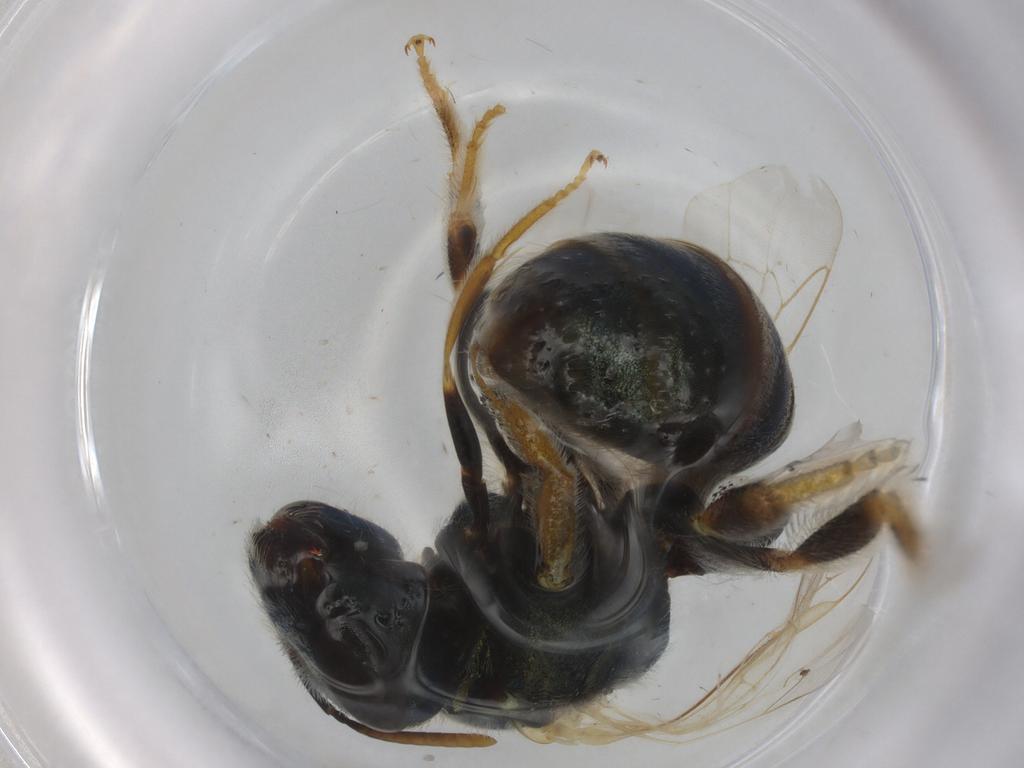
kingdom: Animalia
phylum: Arthropoda
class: Insecta
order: Hymenoptera
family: Halictidae
